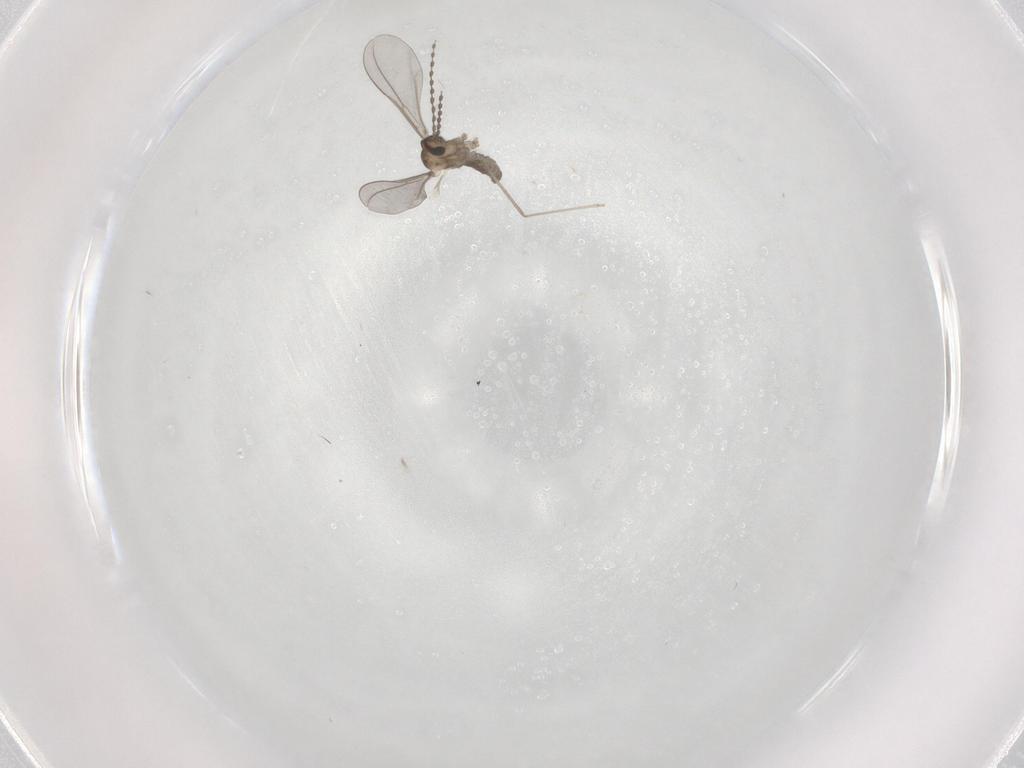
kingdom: Animalia
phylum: Arthropoda
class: Insecta
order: Diptera
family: Cecidomyiidae
